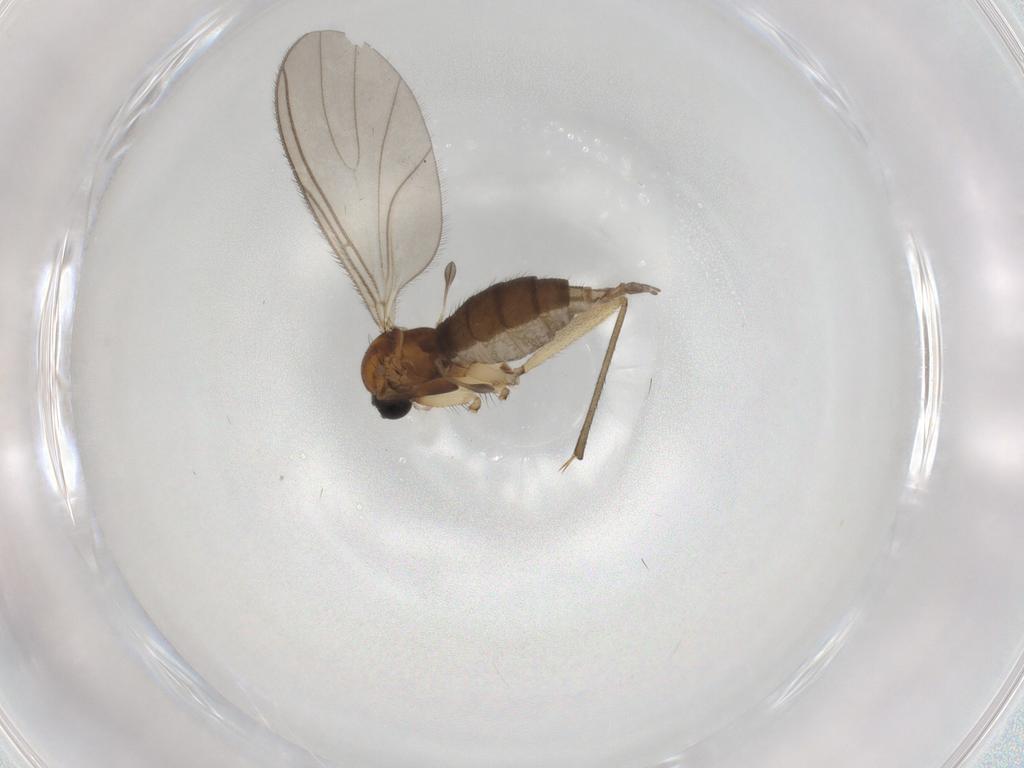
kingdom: Animalia
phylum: Arthropoda
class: Insecta
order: Diptera
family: Sciaridae
